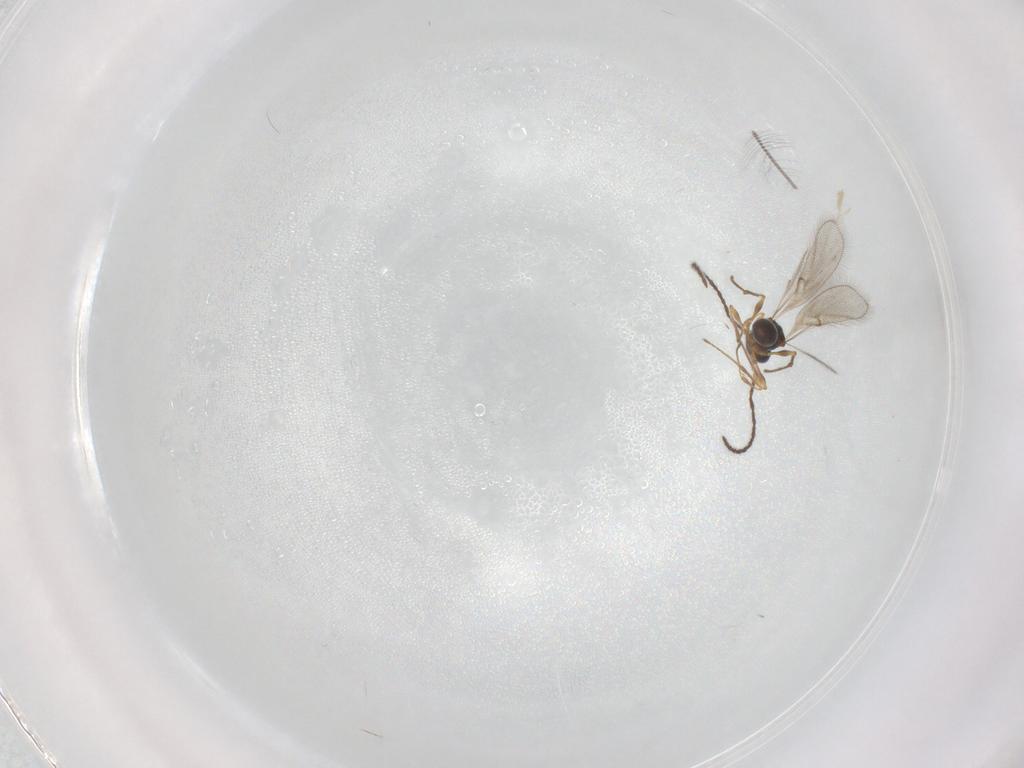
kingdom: Animalia
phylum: Arthropoda
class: Insecta
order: Hymenoptera
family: Diapriidae
